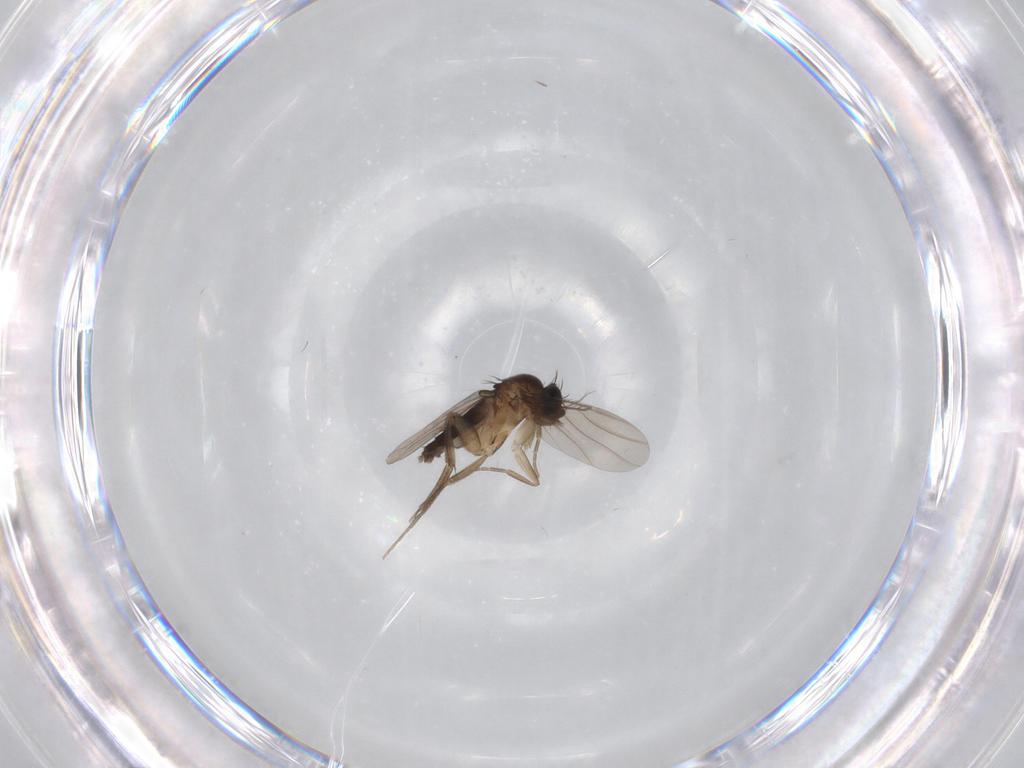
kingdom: Animalia
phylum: Arthropoda
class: Insecta
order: Diptera
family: Phoridae
